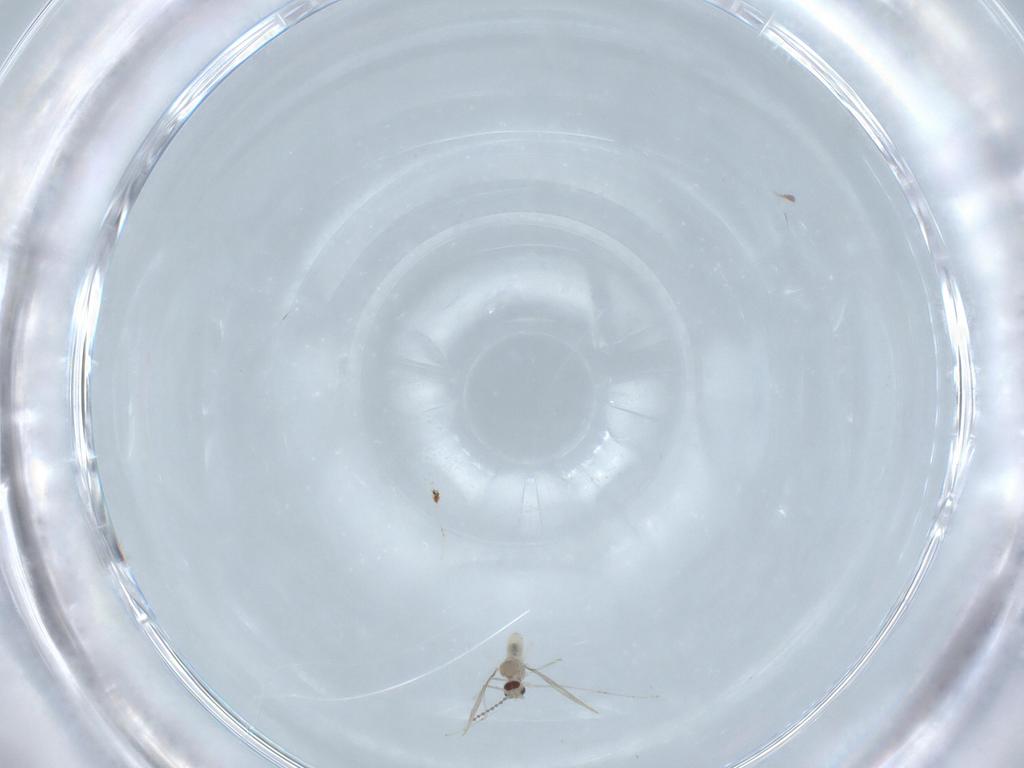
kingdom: Animalia
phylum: Arthropoda
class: Insecta
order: Diptera
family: Drosophilidae
